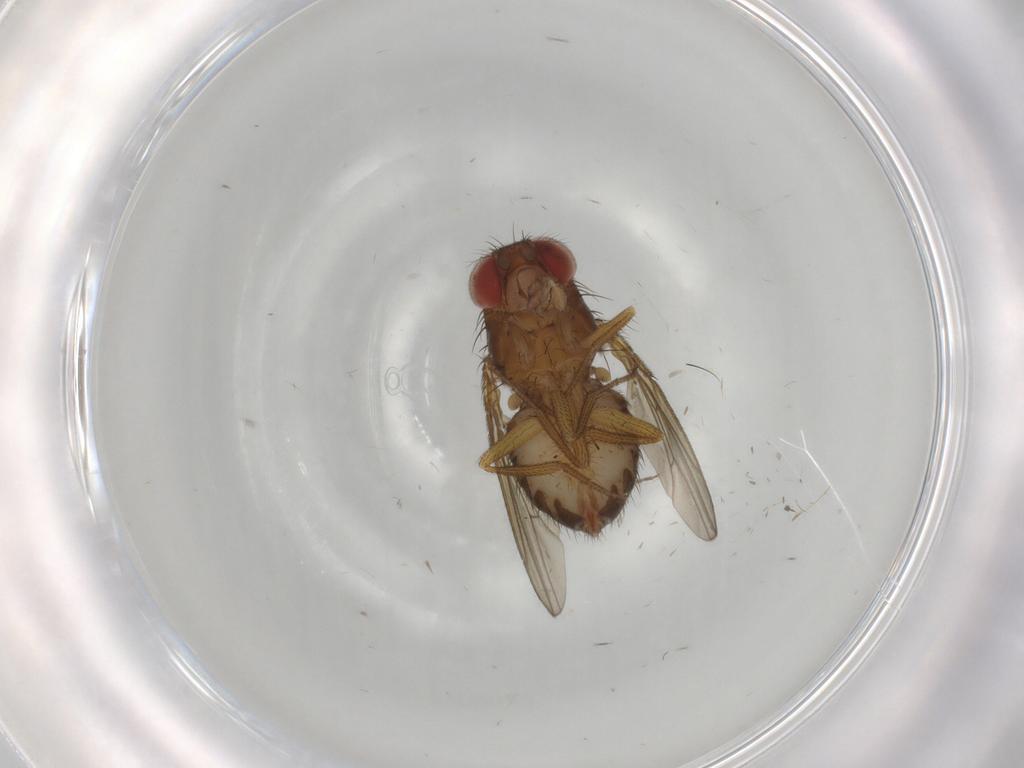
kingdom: Animalia
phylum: Arthropoda
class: Insecta
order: Diptera
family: Drosophilidae
